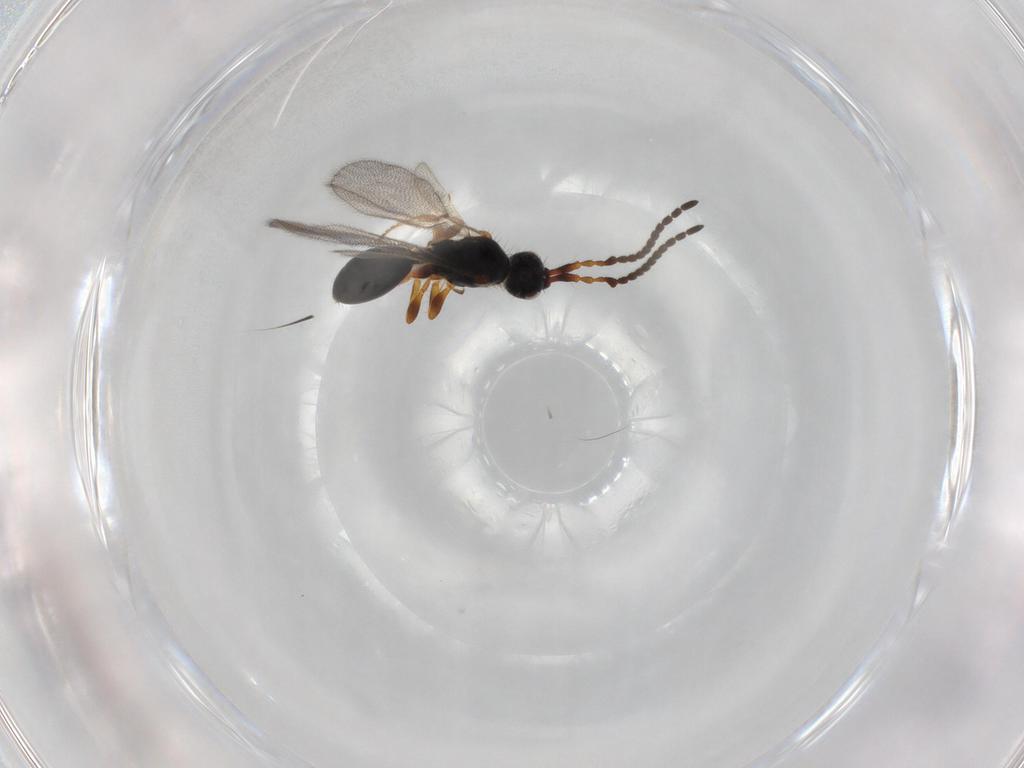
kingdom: Animalia
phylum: Arthropoda
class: Insecta
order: Hymenoptera
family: Diapriidae
